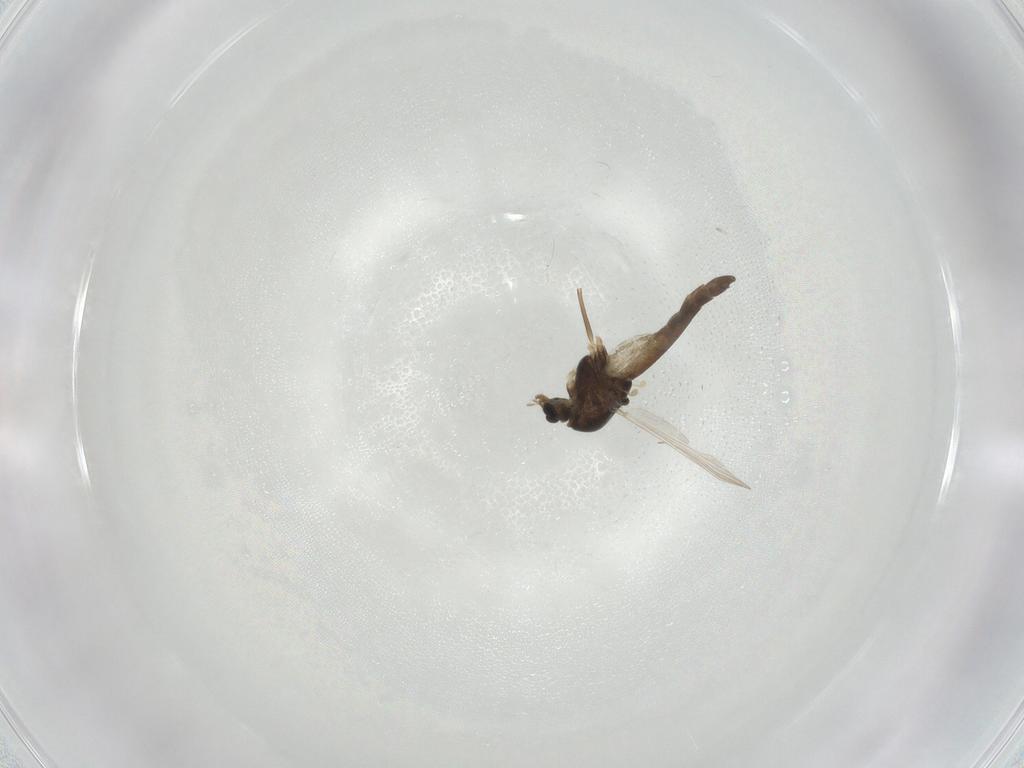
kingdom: Animalia
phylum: Arthropoda
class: Insecta
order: Diptera
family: Chironomidae
